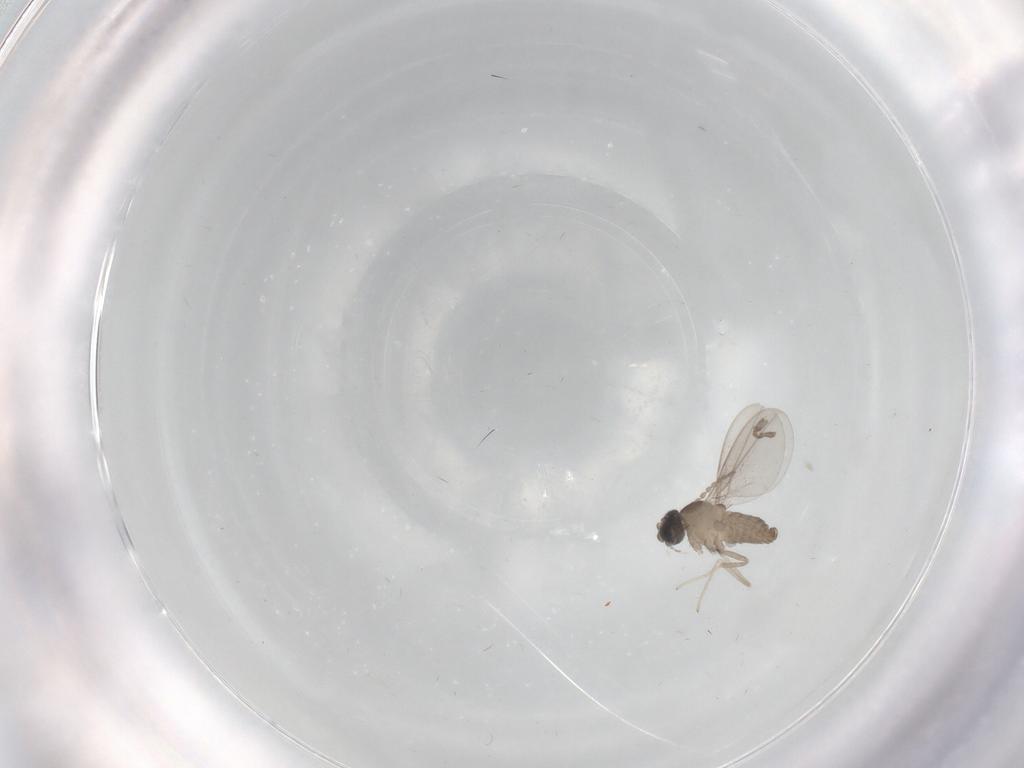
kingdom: Animalia
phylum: Arthropoda
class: Insecta
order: Diptera
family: Cecidomyiidae
